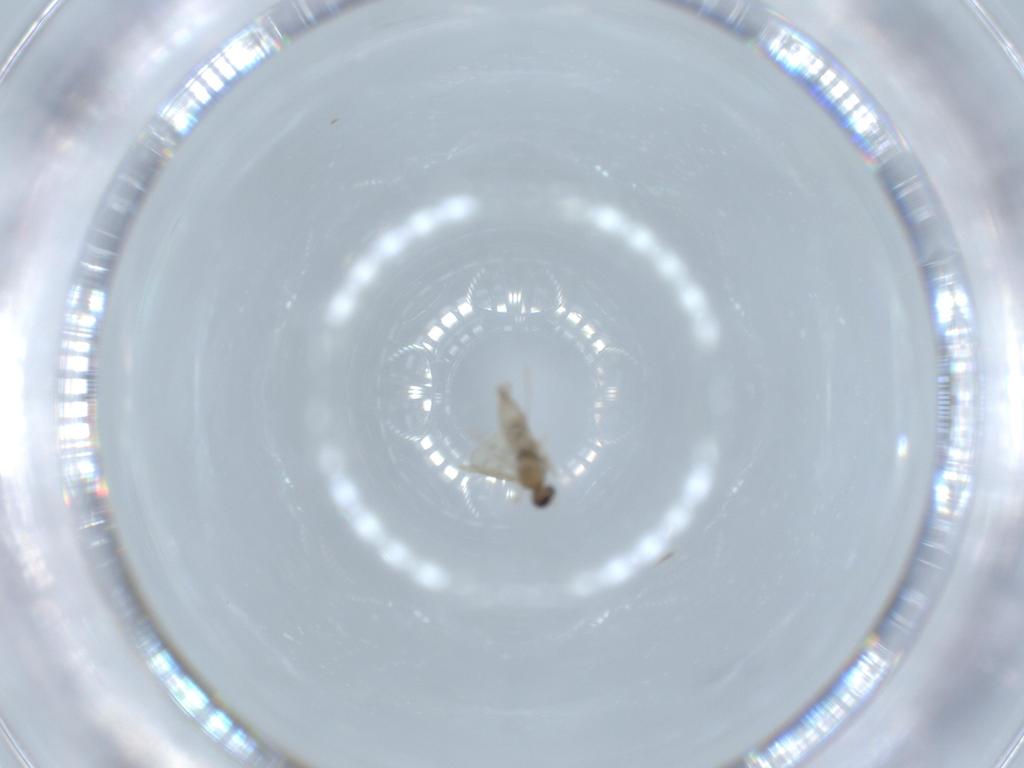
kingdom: Animalia
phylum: Arthropoda
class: Insecta
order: Diptera
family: Cecidomyiidae
